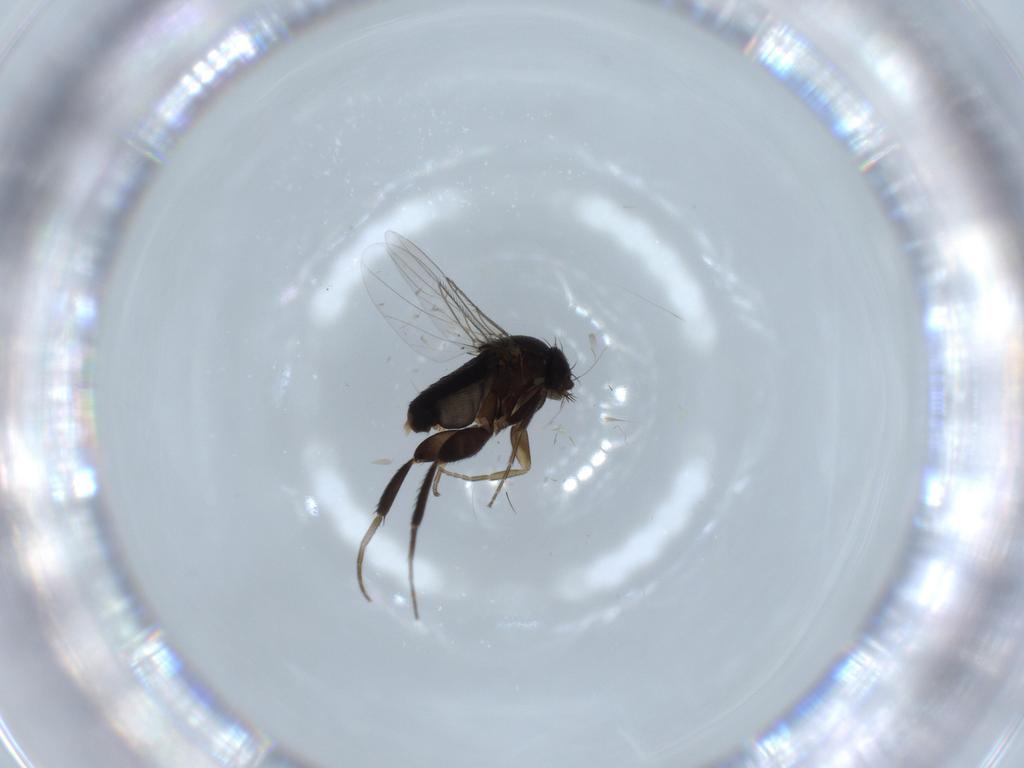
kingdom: Animalia
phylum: Arthropoda
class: Insecta
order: Diptera
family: Phoridae
